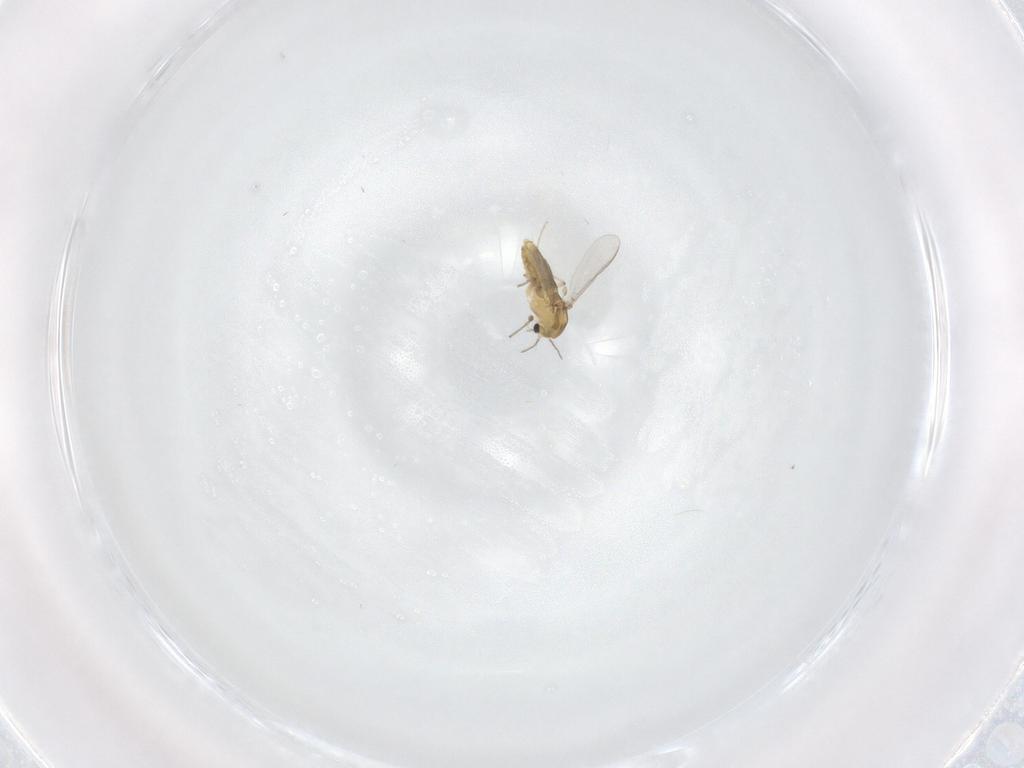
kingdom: Animalia
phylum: Arthropoda
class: Insecta
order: Diptera
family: Chironomidae
